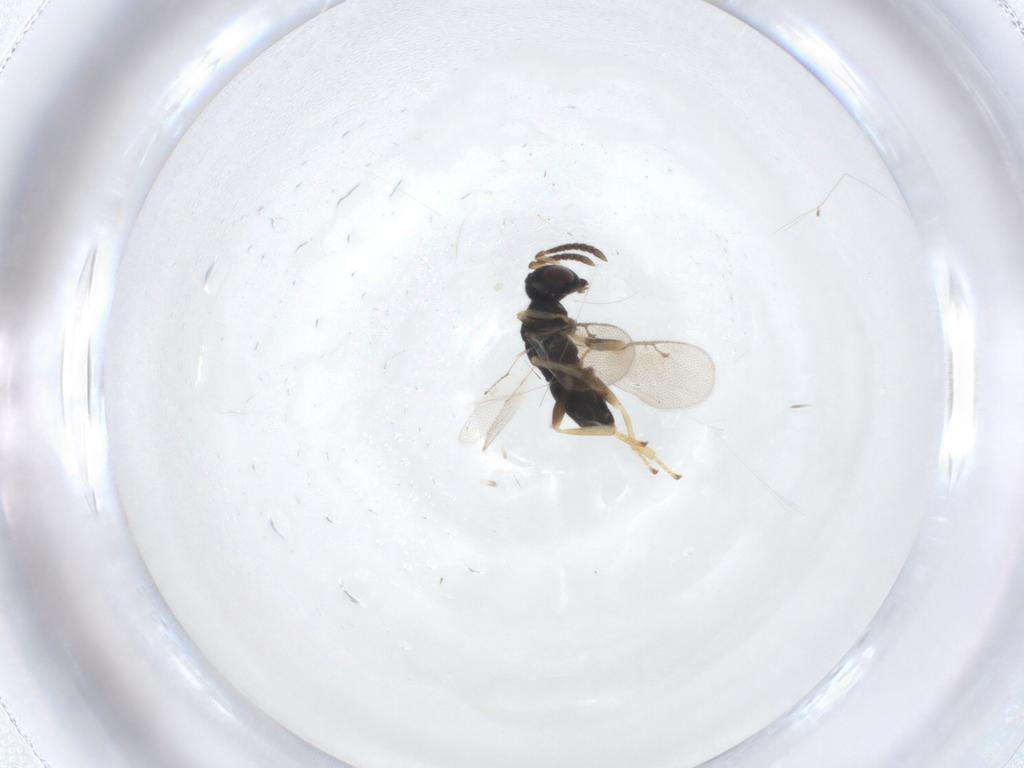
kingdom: Animalia
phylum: Arthropoda
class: Insecta
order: Hymenoptera
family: Pteromalidae
